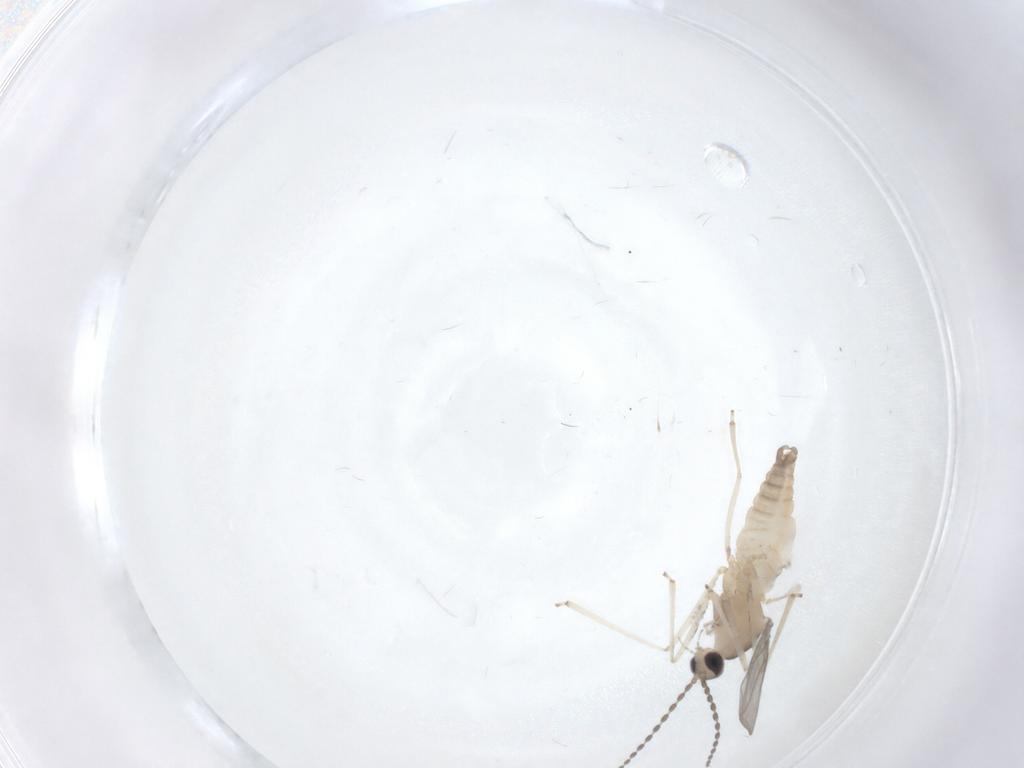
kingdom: Animalia
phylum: Arthropoda
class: Insecta
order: Diptera
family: Cecidomyiidae
